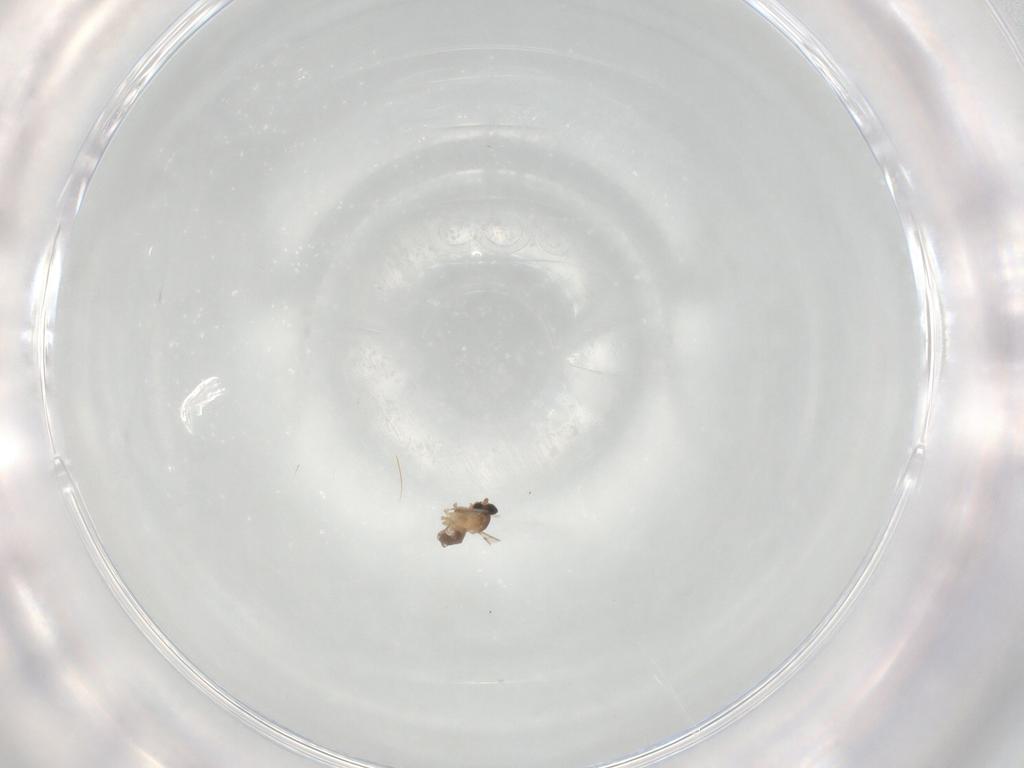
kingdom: Animalia
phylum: Arthropoda
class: Insecta
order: Diptera
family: Cecidomyiidae
